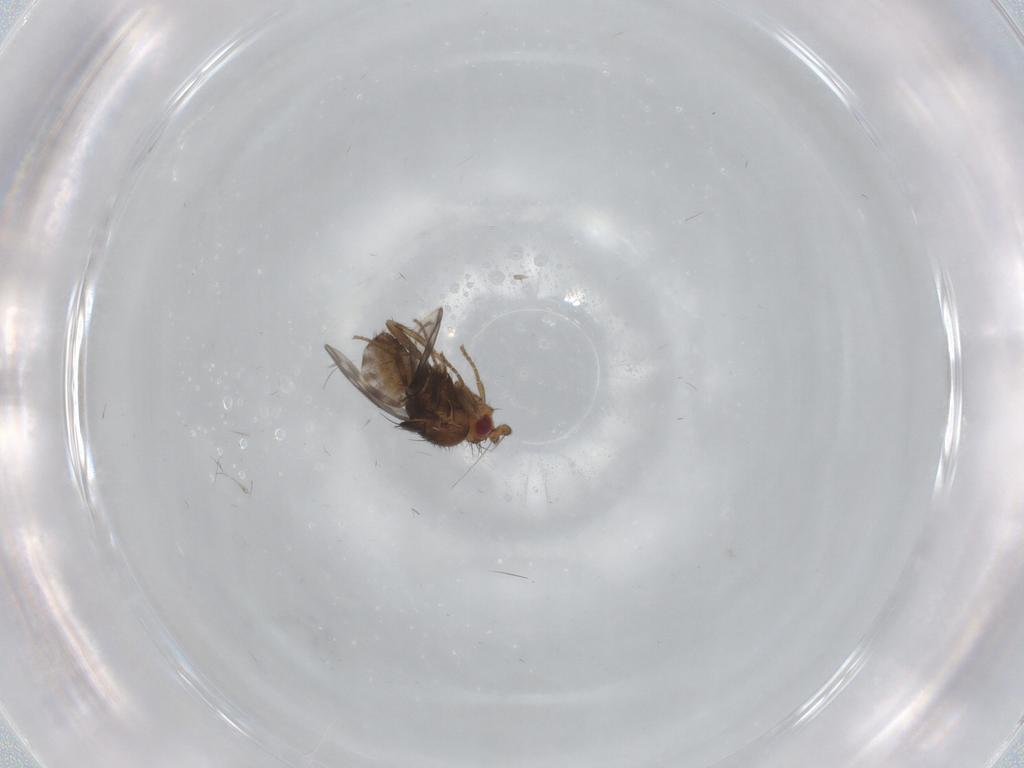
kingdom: Animalia
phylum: Arthropoda
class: Insecta
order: Diptera
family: Sphaeroceridae
